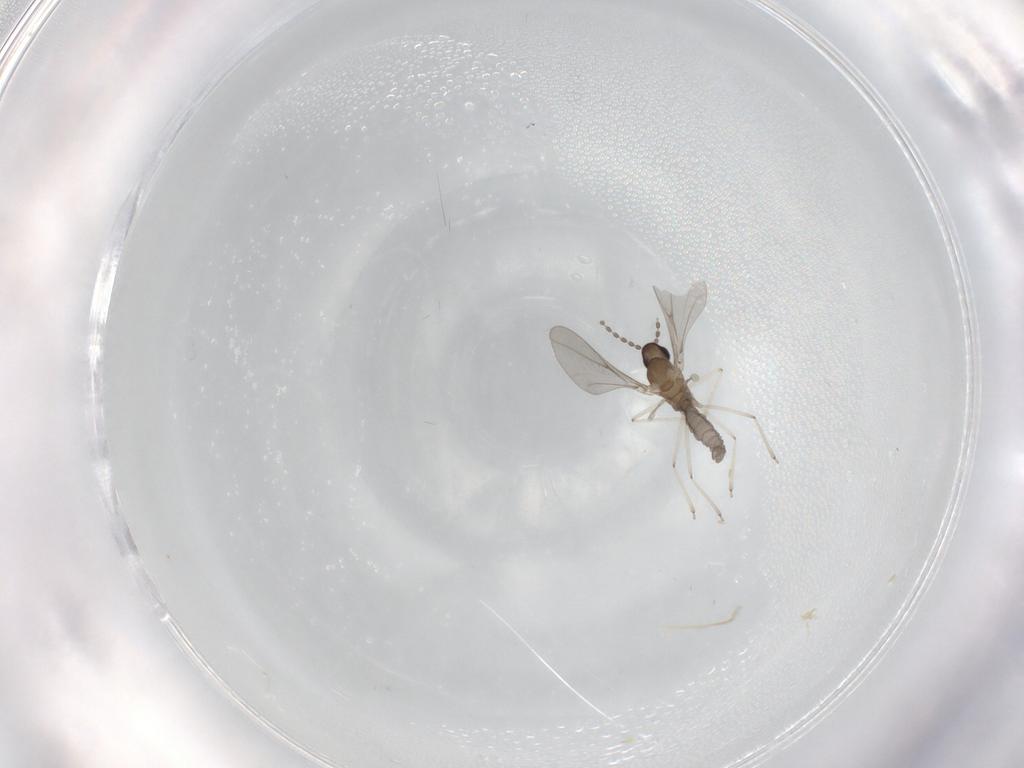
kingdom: Animalia
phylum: Arthropoda
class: Insecta
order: Diptera
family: Cecidomyiidae
